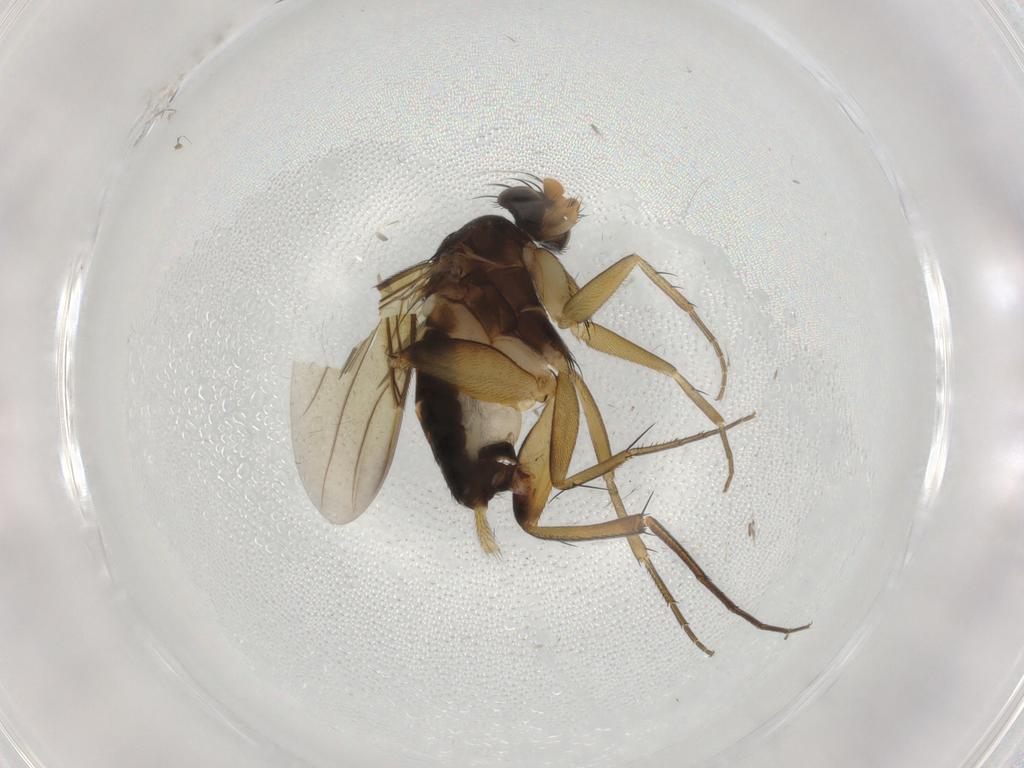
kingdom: Animalia
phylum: Arthropoda
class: Insecta
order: Diptera
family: Phoridae
